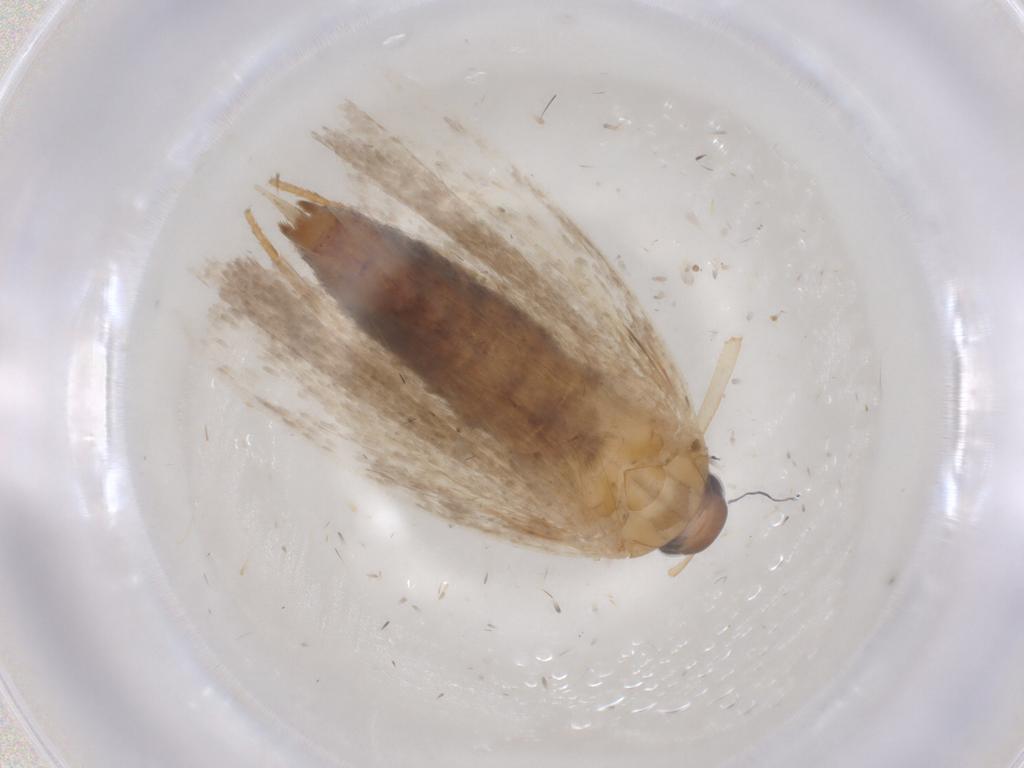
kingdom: Animalia
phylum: Arthropoda
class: Insecta
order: Lepidoptera
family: Gelechiidae
